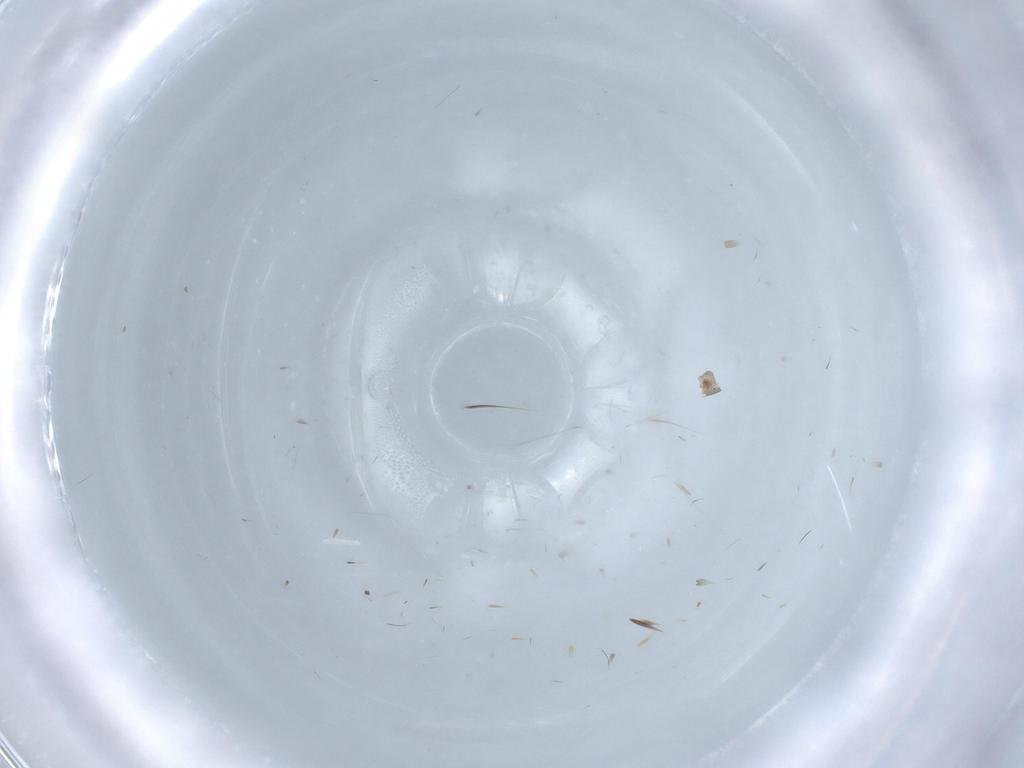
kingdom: Animalia
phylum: Arthropoda
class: Insecta
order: Diptera
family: Cecidomyiidae
